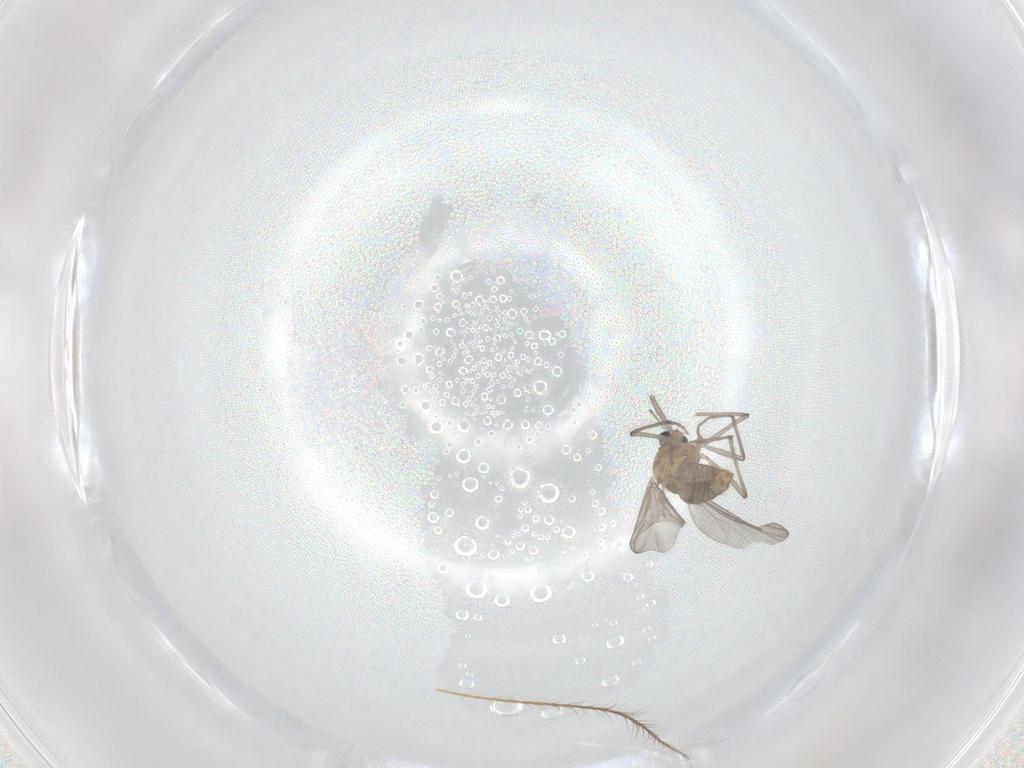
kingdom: Animalia
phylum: Arthropoda
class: Insecta
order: Diptera
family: Chironomidae
